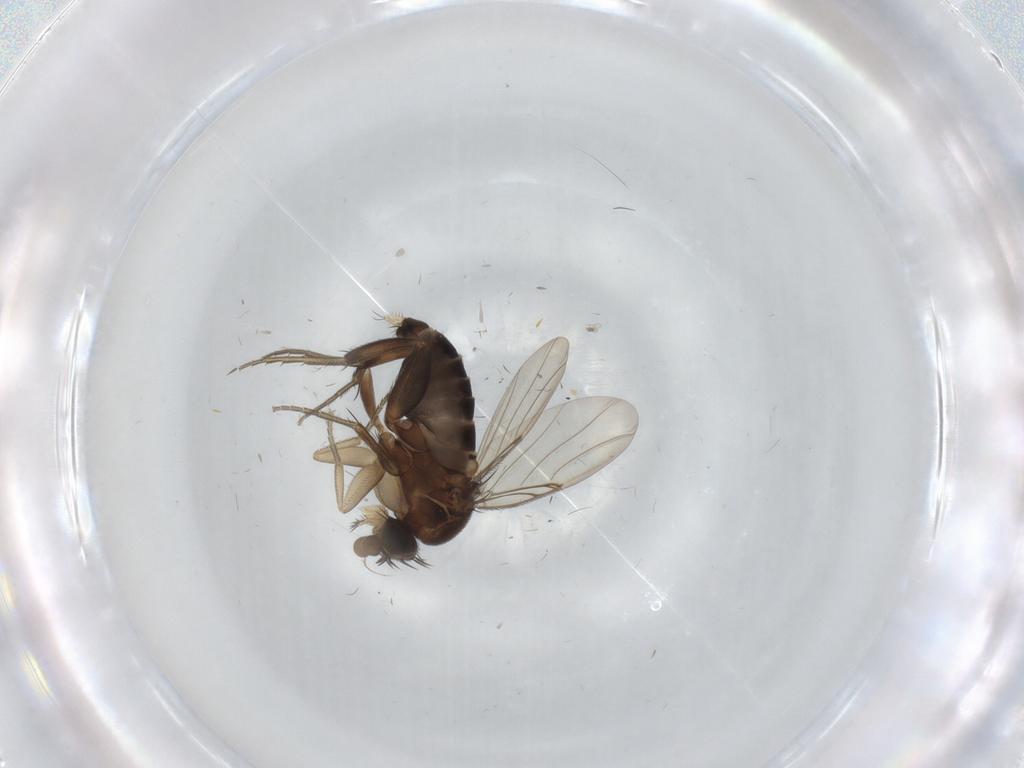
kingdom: Animalia
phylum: Arthropoda
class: Insecta
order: Diptera
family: Phoridae
